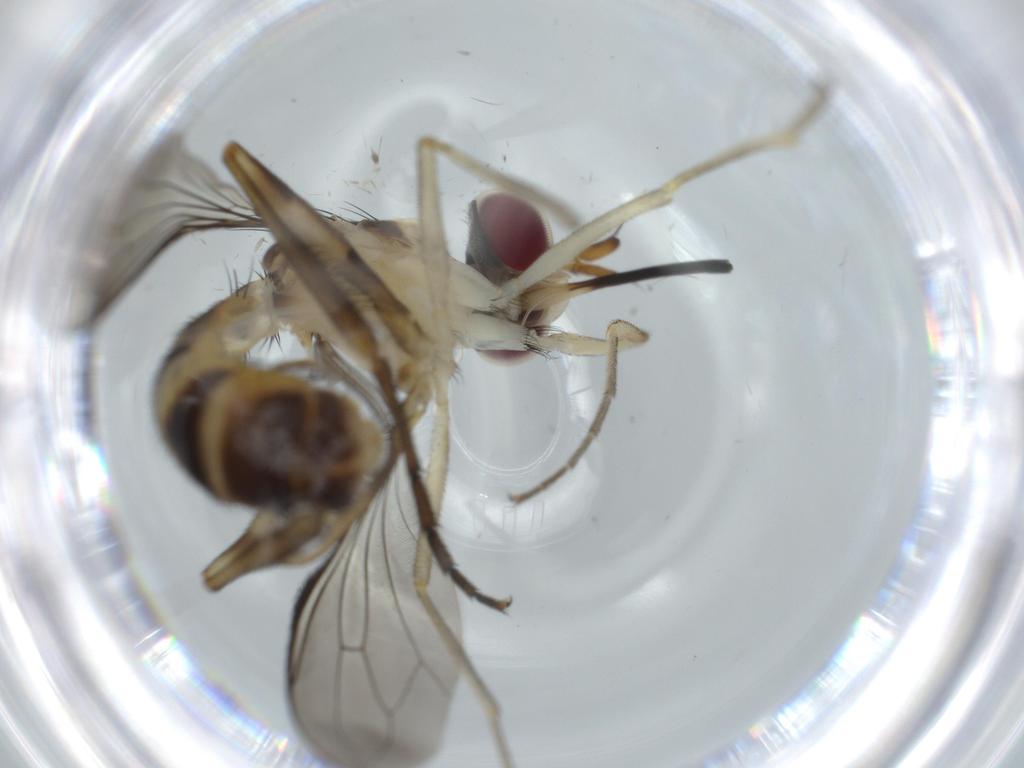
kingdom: Animalia
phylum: Arthropoda
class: Insecta
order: Diptera
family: Conopidae
